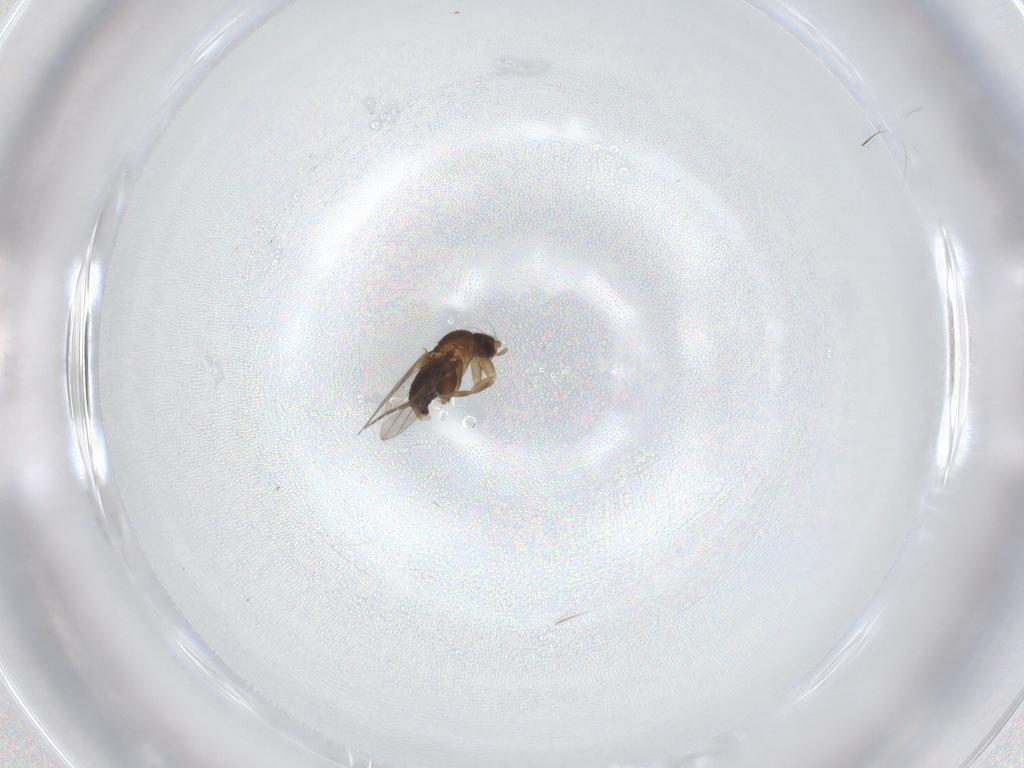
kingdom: Animalia
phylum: Arthropoda
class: Insecta
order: Diptera
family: Phoridae
